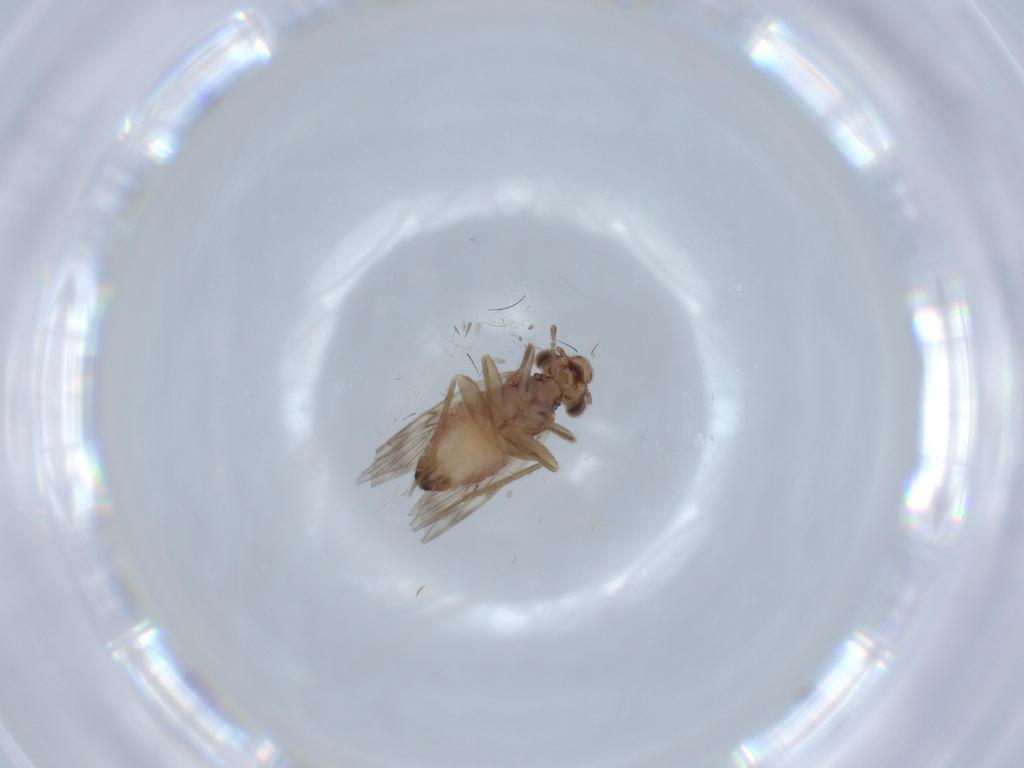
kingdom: Animalia
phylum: Arthropoda
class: Insecta
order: Psocodea
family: Lepidopsocidae
